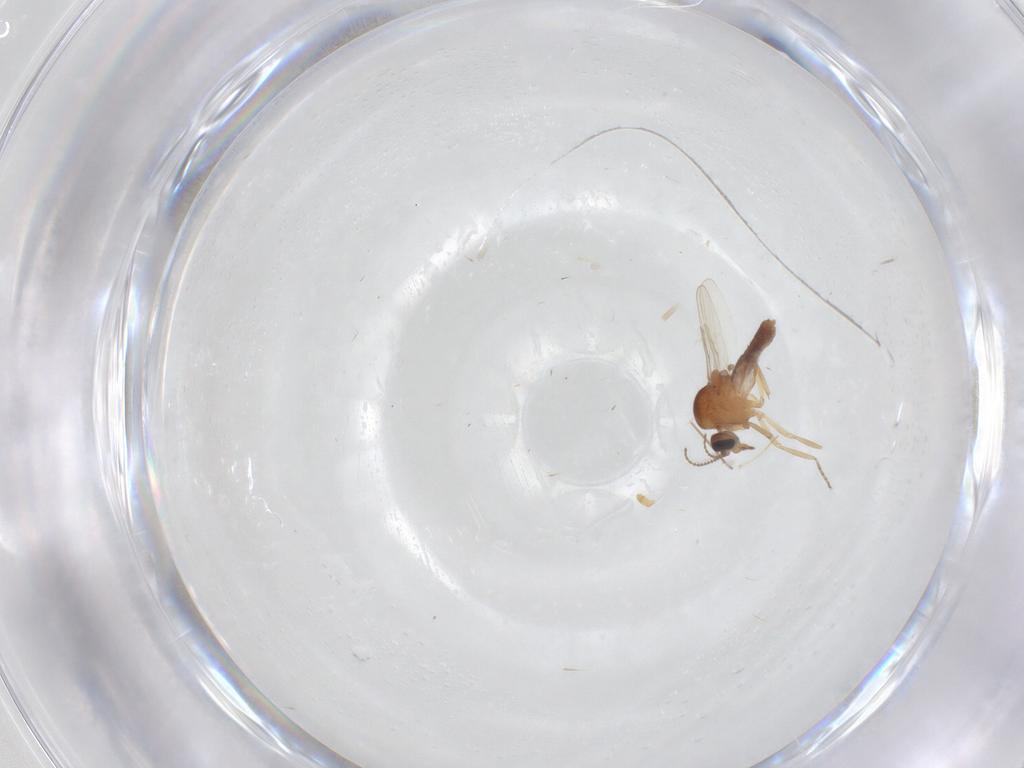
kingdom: Animalia
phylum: Arthropoda
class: Insecta
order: Diptera
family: Ceratopogonidae
